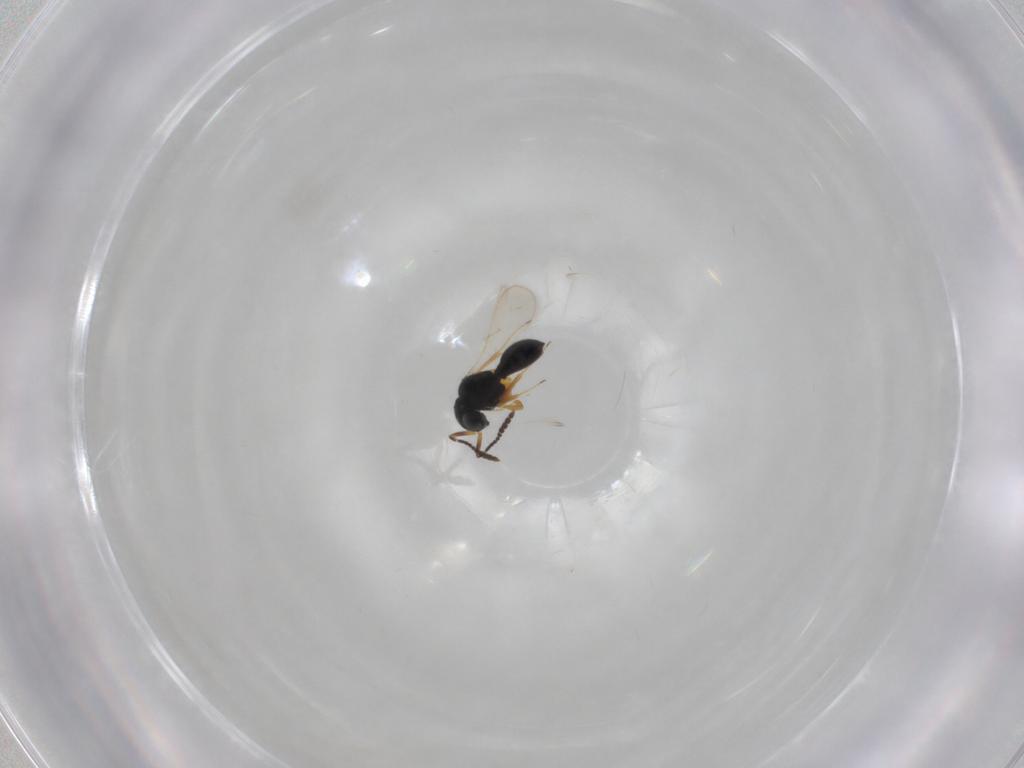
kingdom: Animalia
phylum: Arthropoda
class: Insecta
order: Hymenoptera
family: Scelionidae
